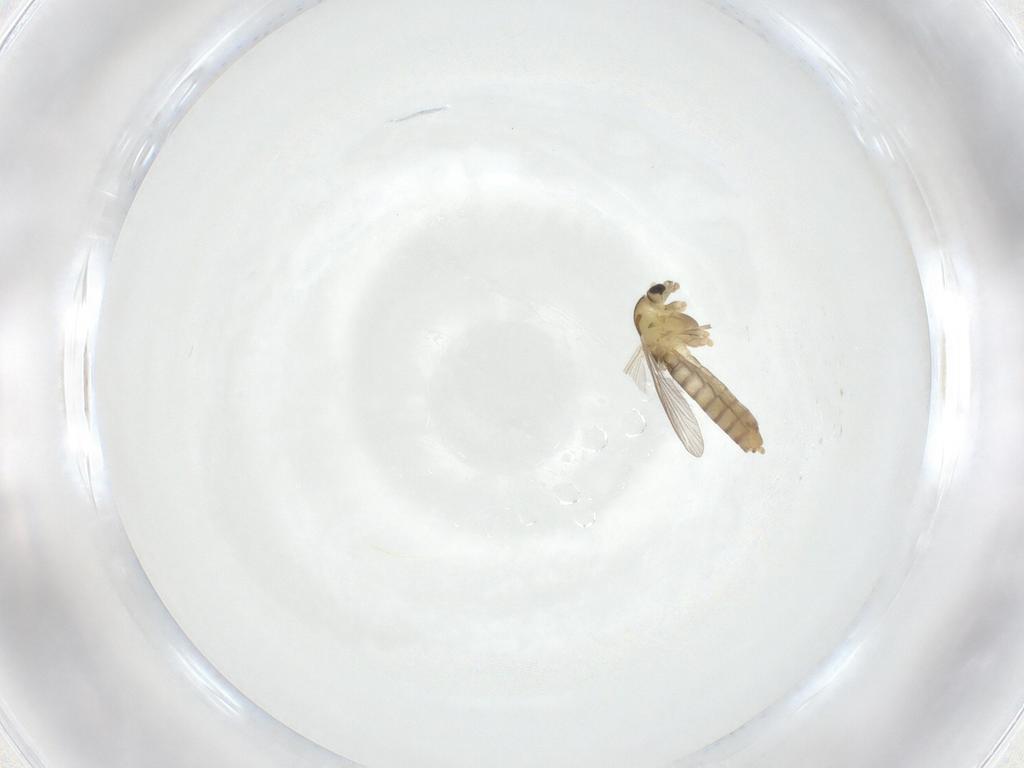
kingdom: Animalia
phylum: Arthropoda
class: Insecta
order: Diptera
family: Chironomidae
